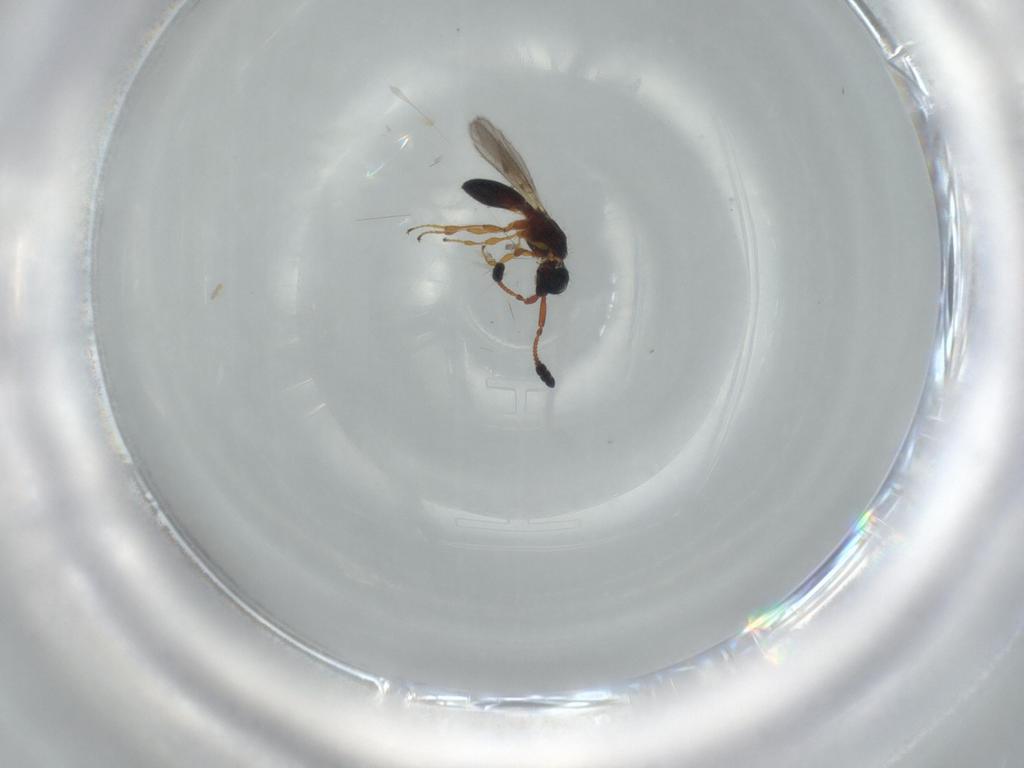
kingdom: Animalia
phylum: Arthropoda
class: Insecta
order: Hymenoptera
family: Diapriidae
